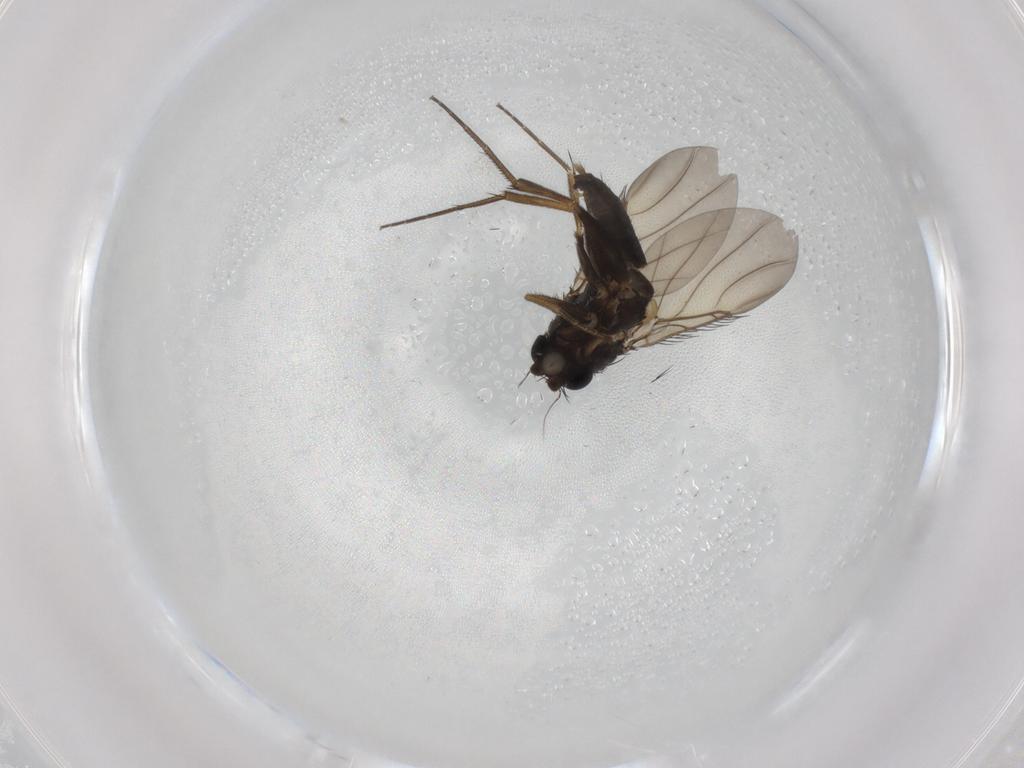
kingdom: Animalia
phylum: Arthropoda
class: Insecta
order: Diptera
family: Phoridae
